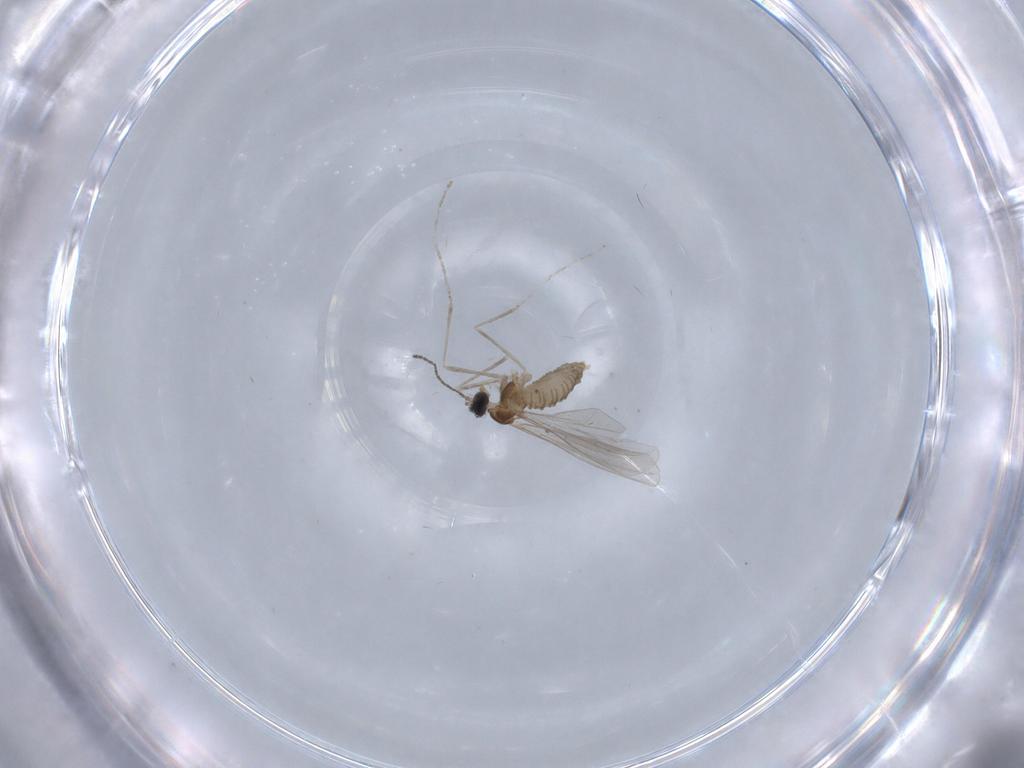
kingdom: Animalia
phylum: Arthropoda
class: Insecta
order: Diptera
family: Cecidomyiidae
